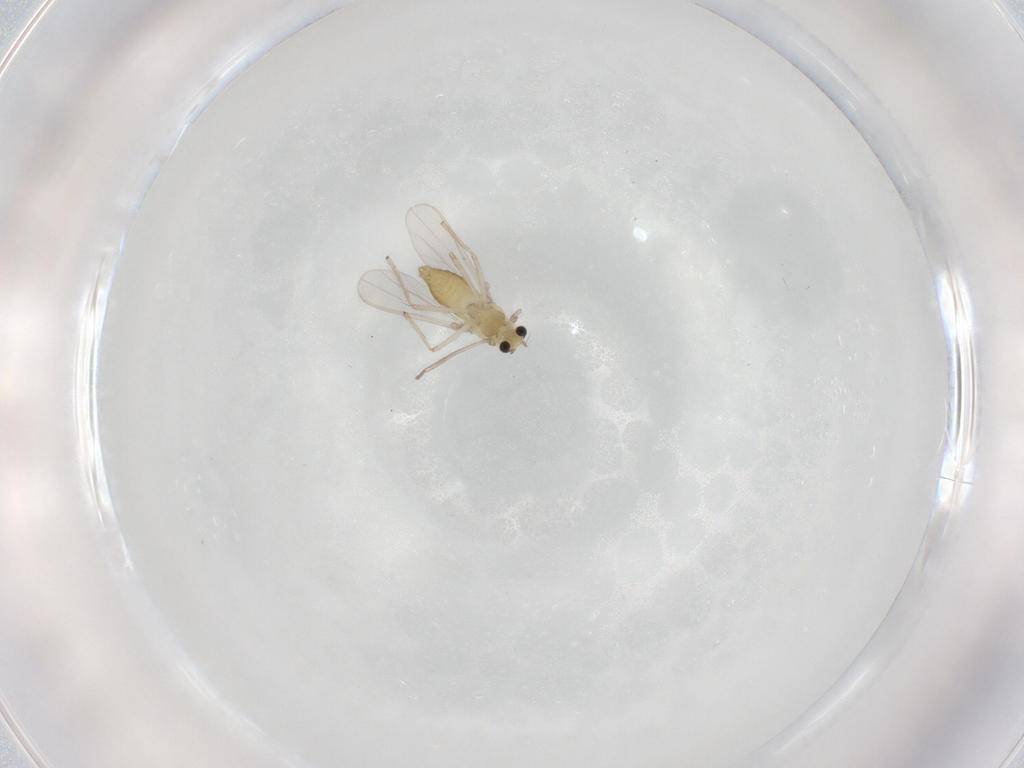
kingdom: Animalia
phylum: Arthropoda
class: Insecta
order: Diptera
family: Chironomidae
